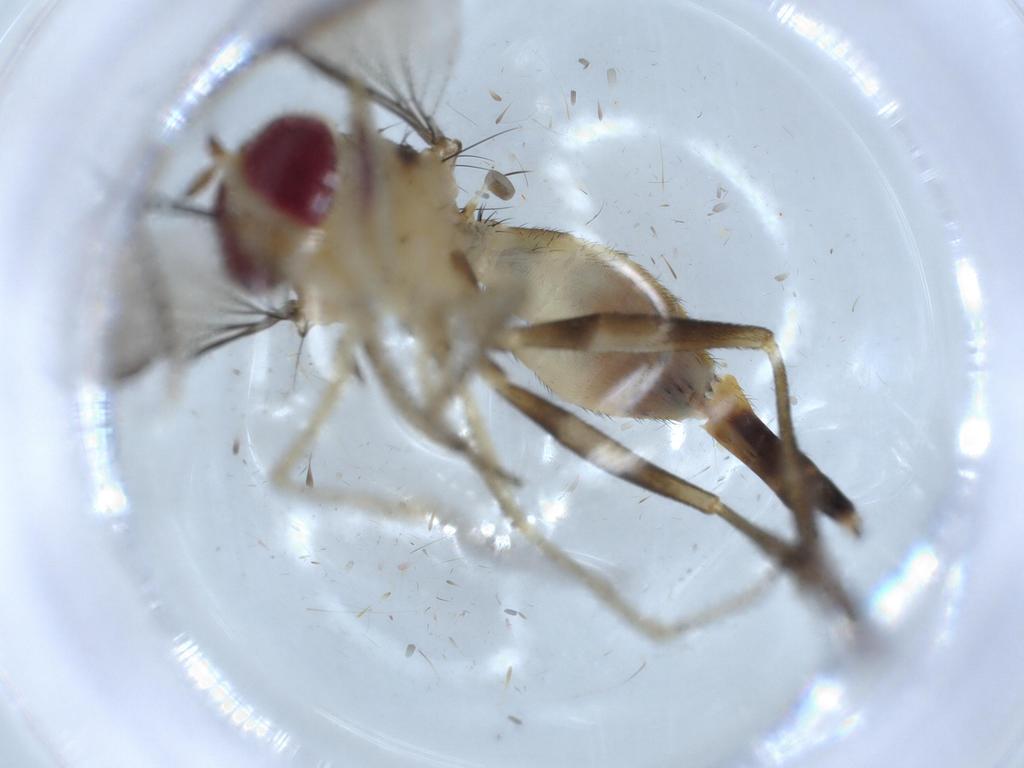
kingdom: Animalia
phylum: Arthropoda
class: Insecta
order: Diptera
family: Conopidae
